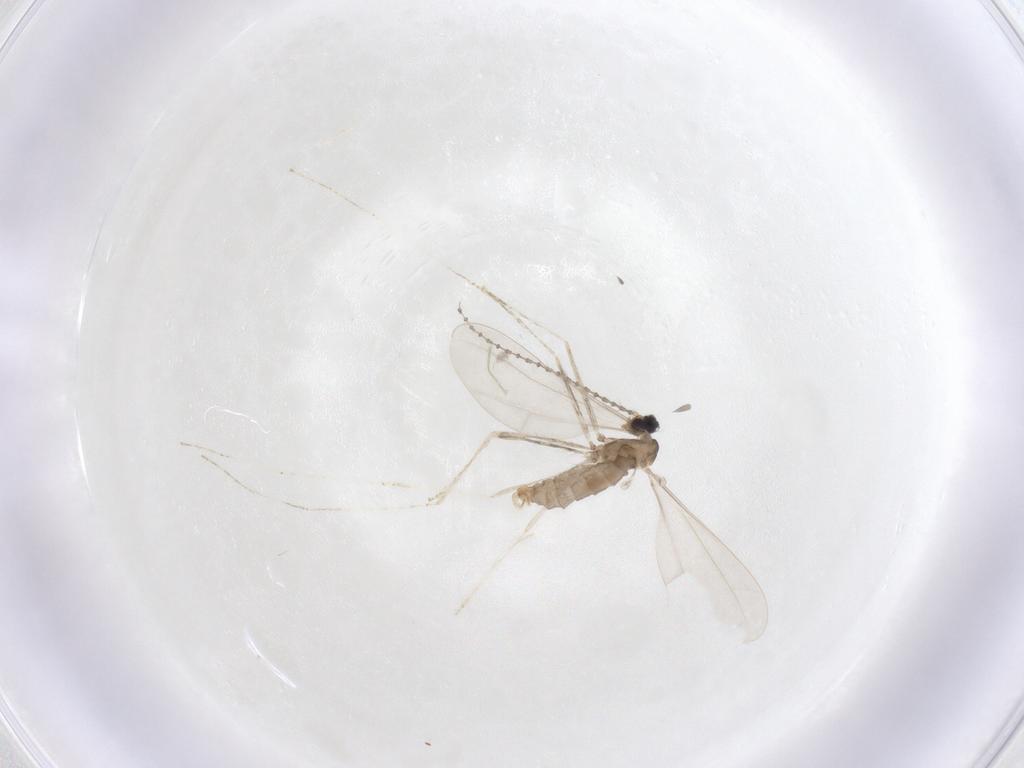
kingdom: Animalia
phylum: Arthropoda
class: Insecta
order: Diptera
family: Cecidomyiidae
